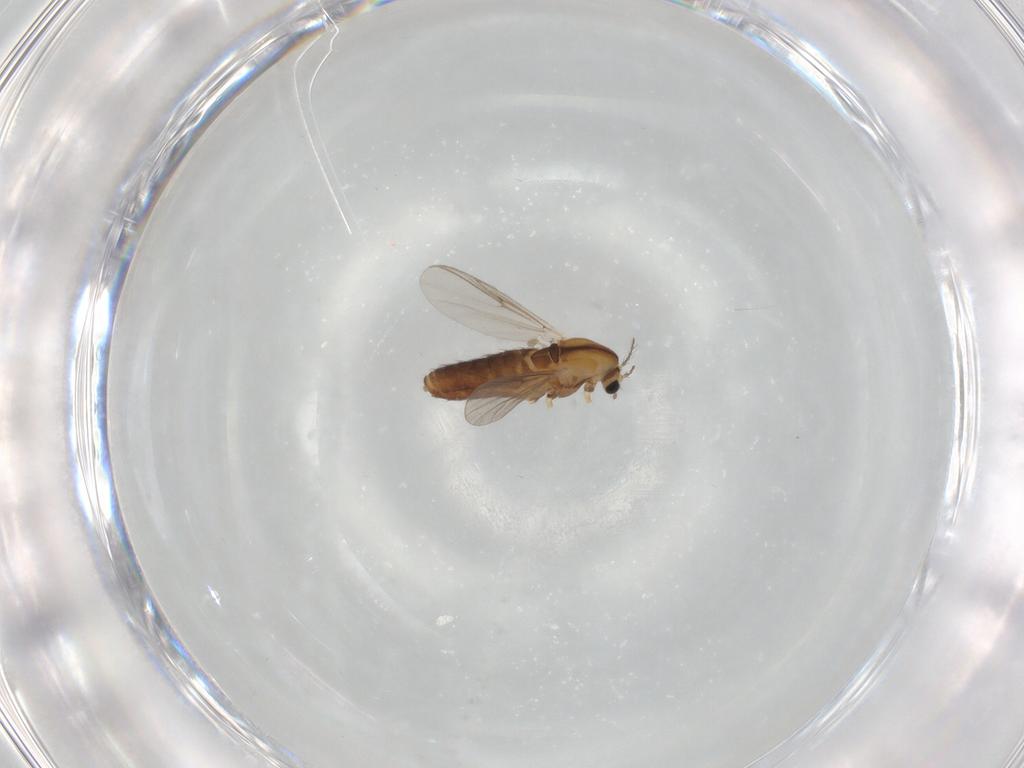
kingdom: Animalia
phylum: Arthropoda
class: Insecta
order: Diptera
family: Chironomidae
